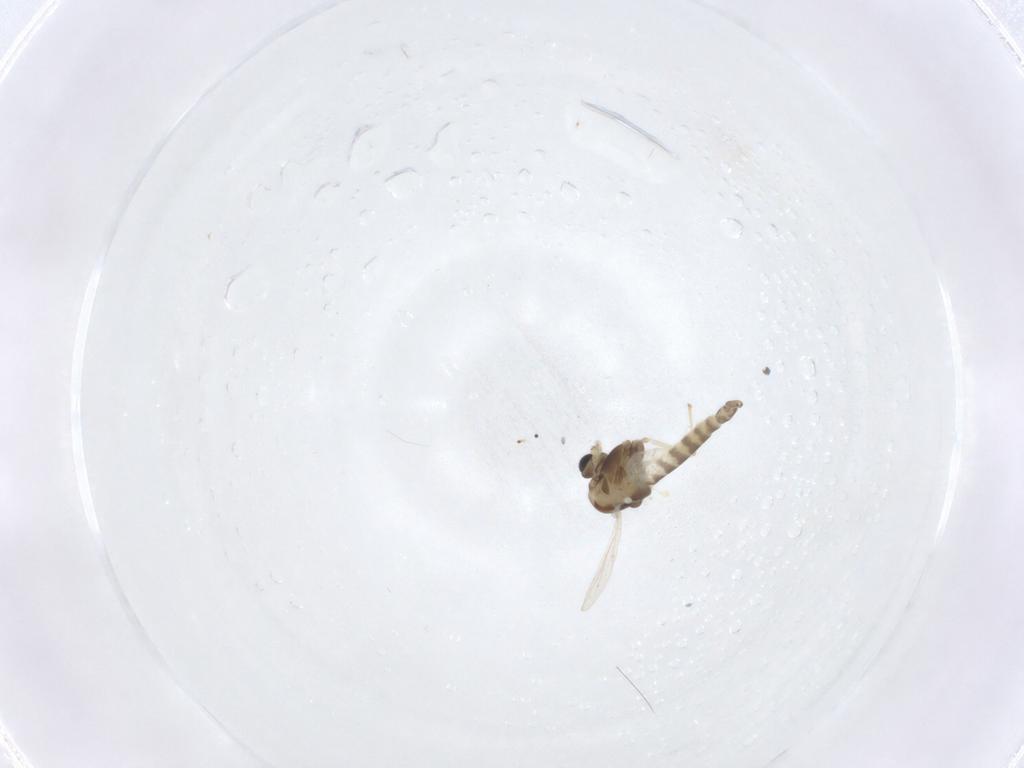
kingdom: Animalia
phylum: Arthropoda
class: Insecta
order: Diptera
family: Chironomidae
